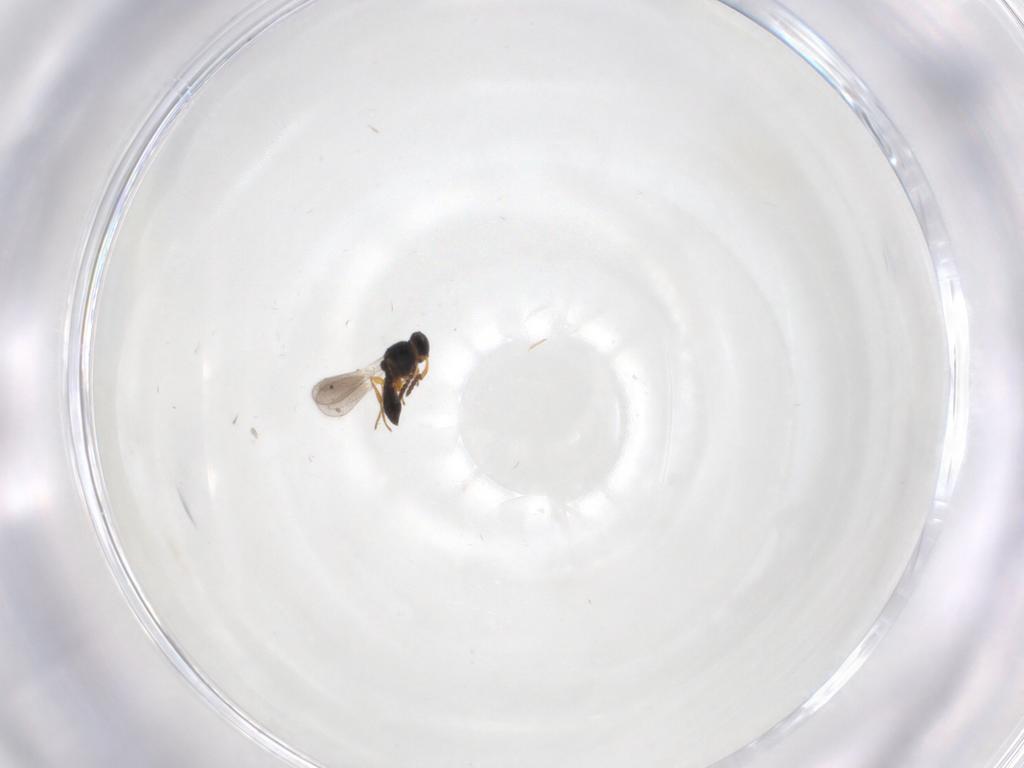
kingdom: Animalia
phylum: Arthropoda
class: Insecta
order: Hymenoptera
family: Platygastridae
